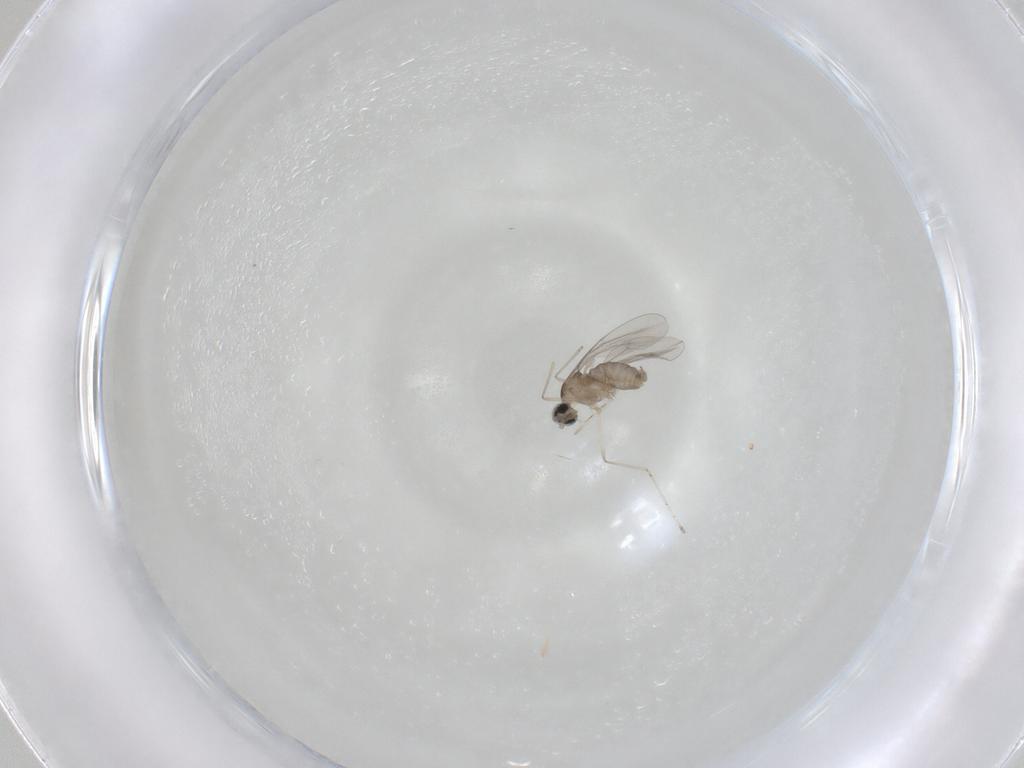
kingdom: Animalia
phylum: Arthropoda
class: Insecta
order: Diptera
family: Cecidomyiidae
